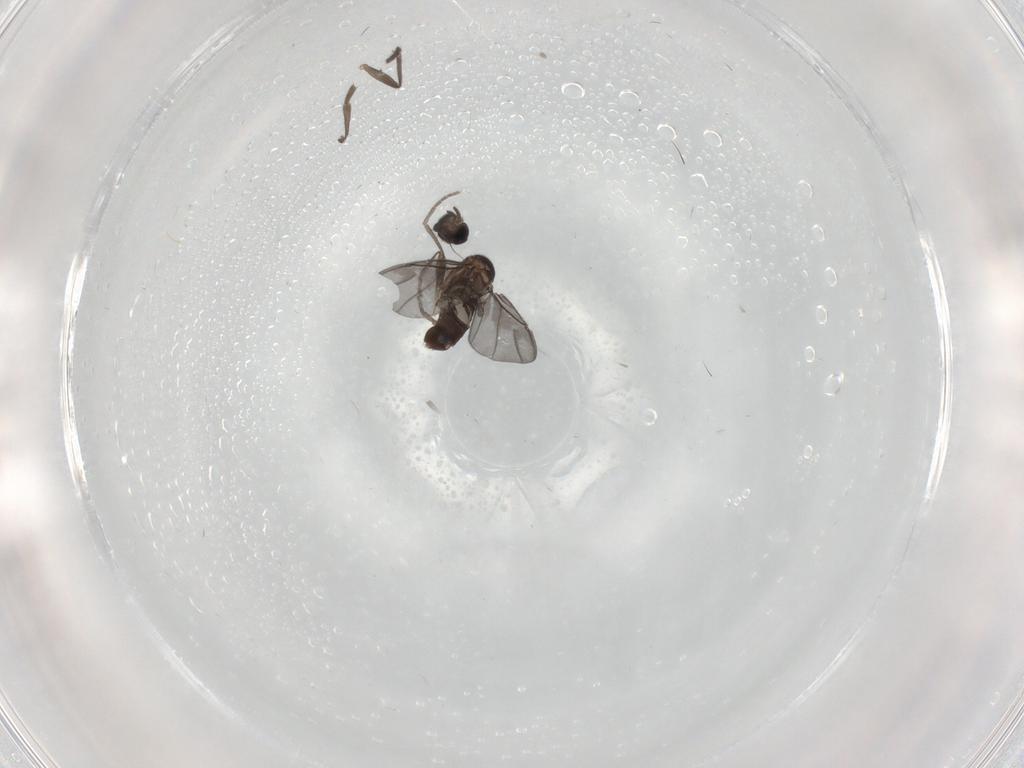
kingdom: Animalia
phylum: Arthropoda
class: Insecta
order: Diptera
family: Phoridae
